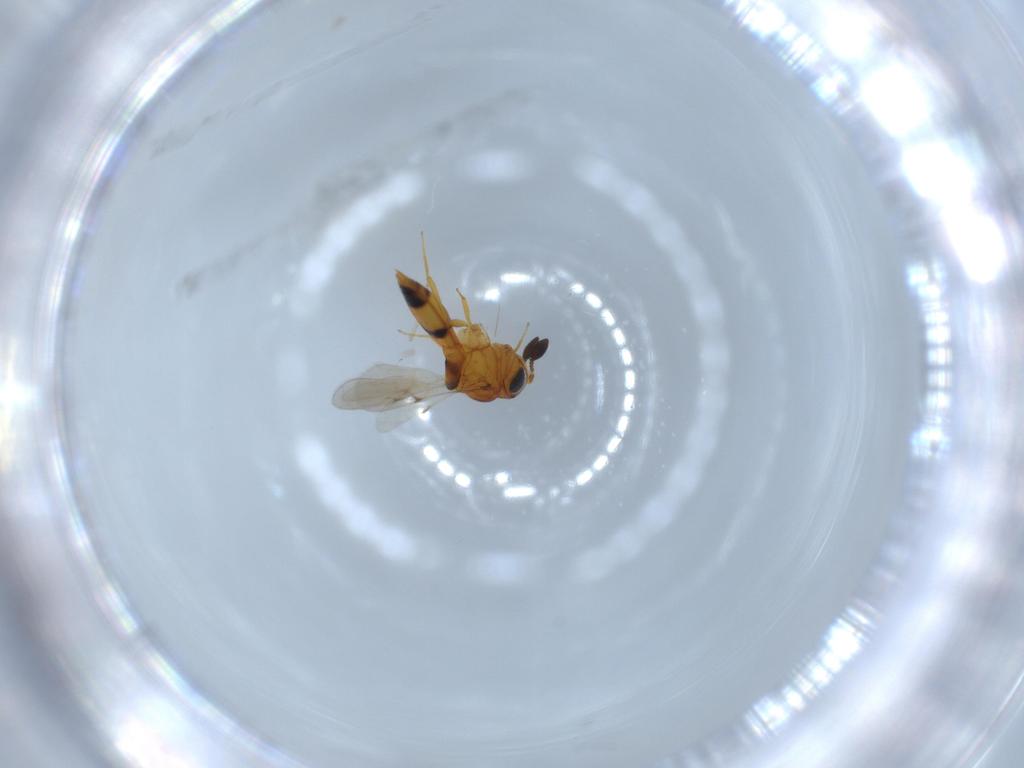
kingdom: Animalia
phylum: Arthropoda
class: Insecta
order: Hymenoptera
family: Scelionidae
